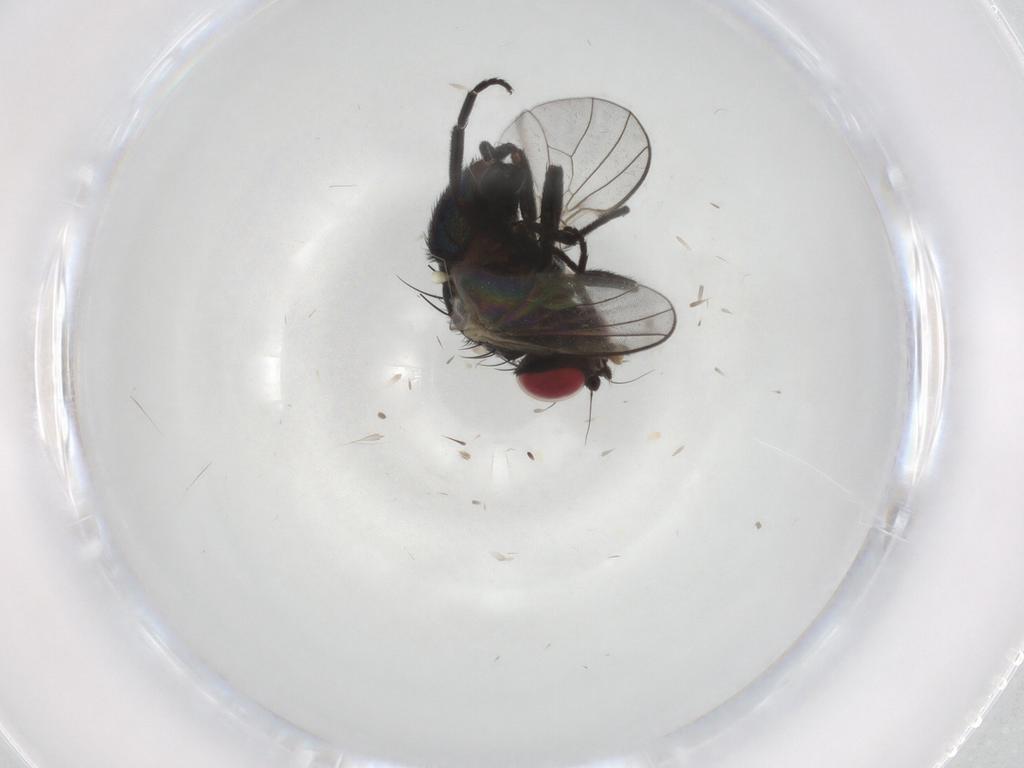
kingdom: Animalia
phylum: Arthropoda
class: Insecta
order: Diptera
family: Agromyzidae
